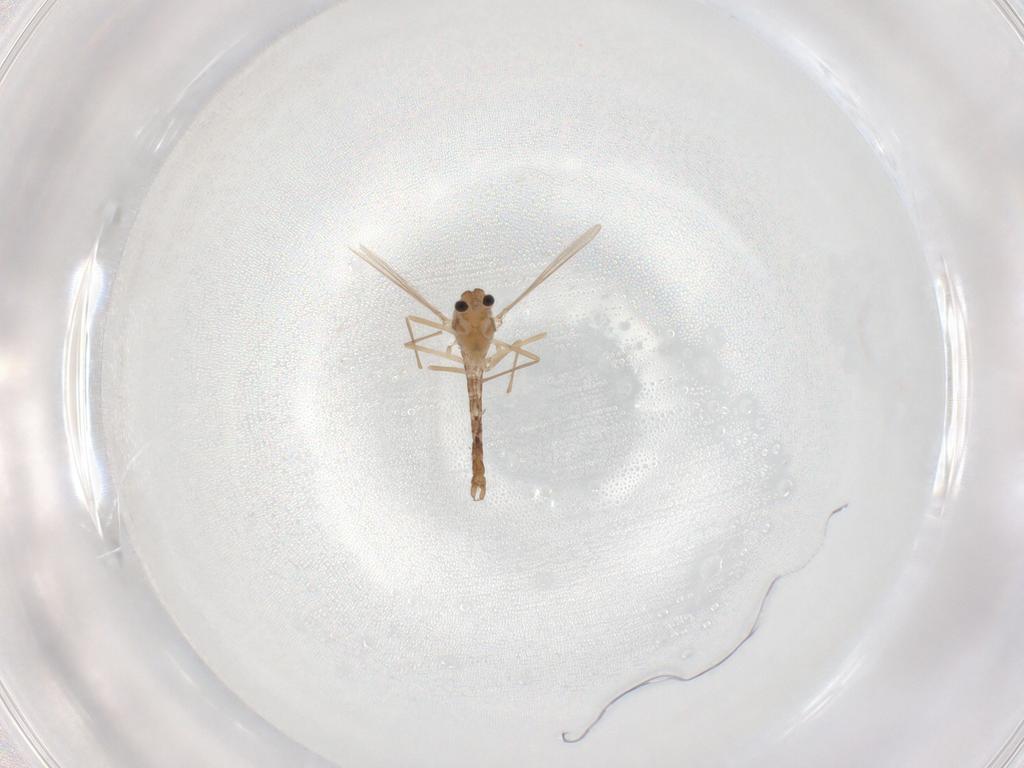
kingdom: Animalia
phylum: Arthropoda
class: Insecta
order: Diptera
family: Chironomidae
